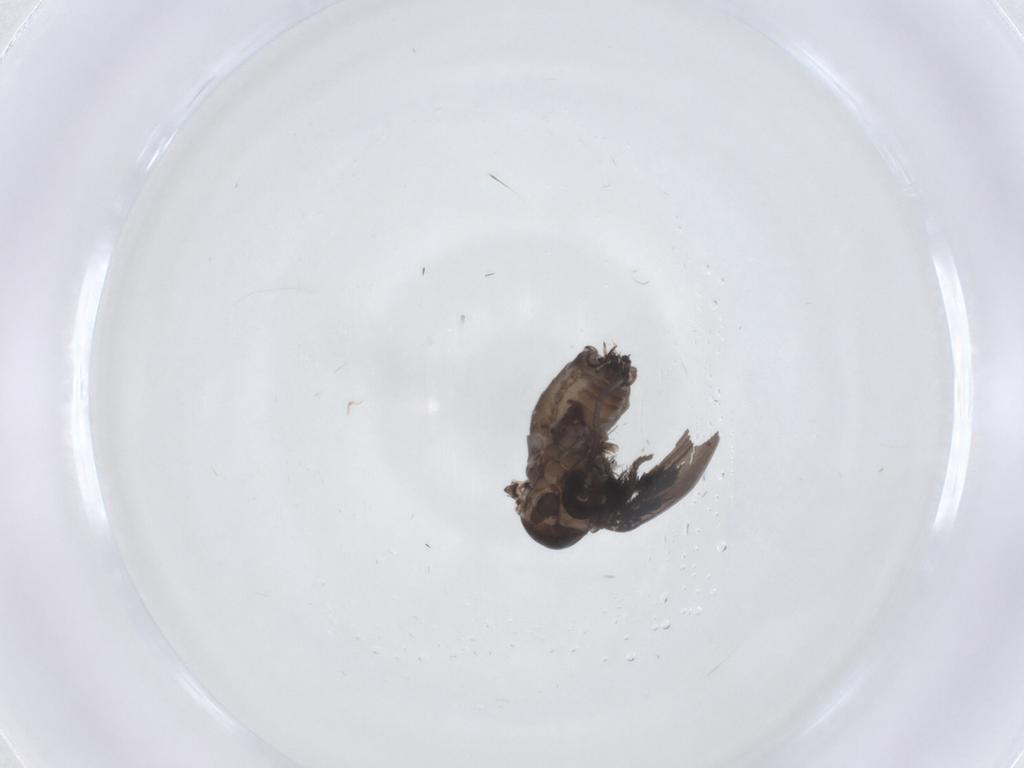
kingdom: Animalia
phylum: Arthropoda
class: Insecta
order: Diptera
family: Psychodidae
